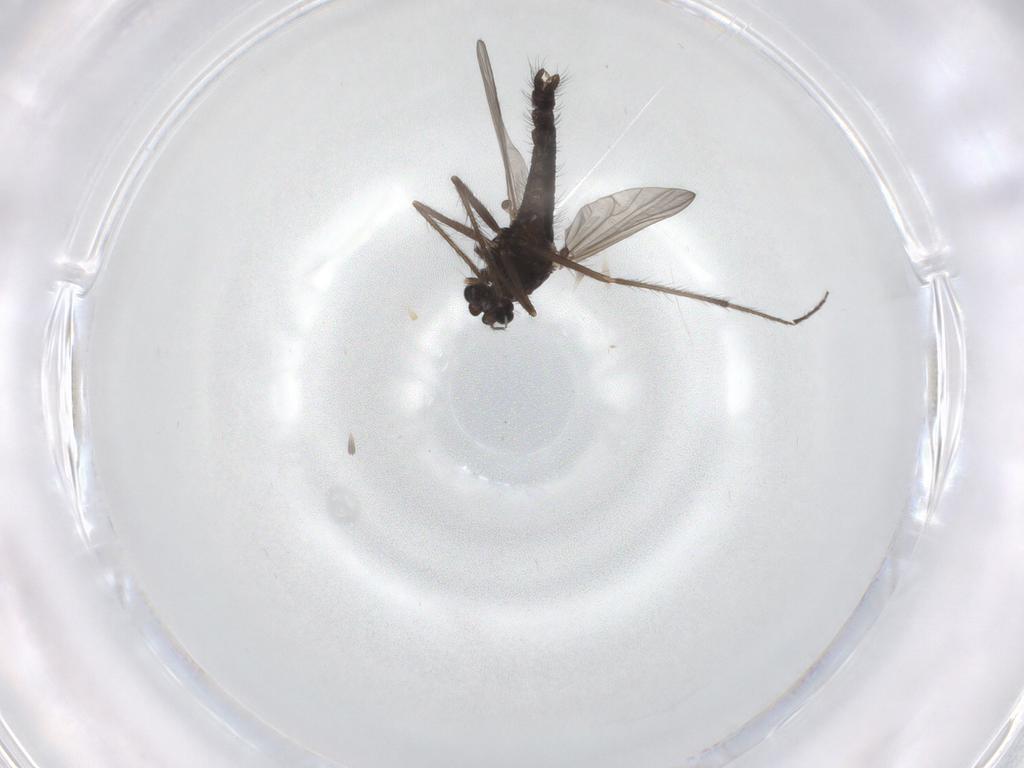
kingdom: Animalia
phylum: Arthropoda
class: Insecta
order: Diptera
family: Chironomidae
